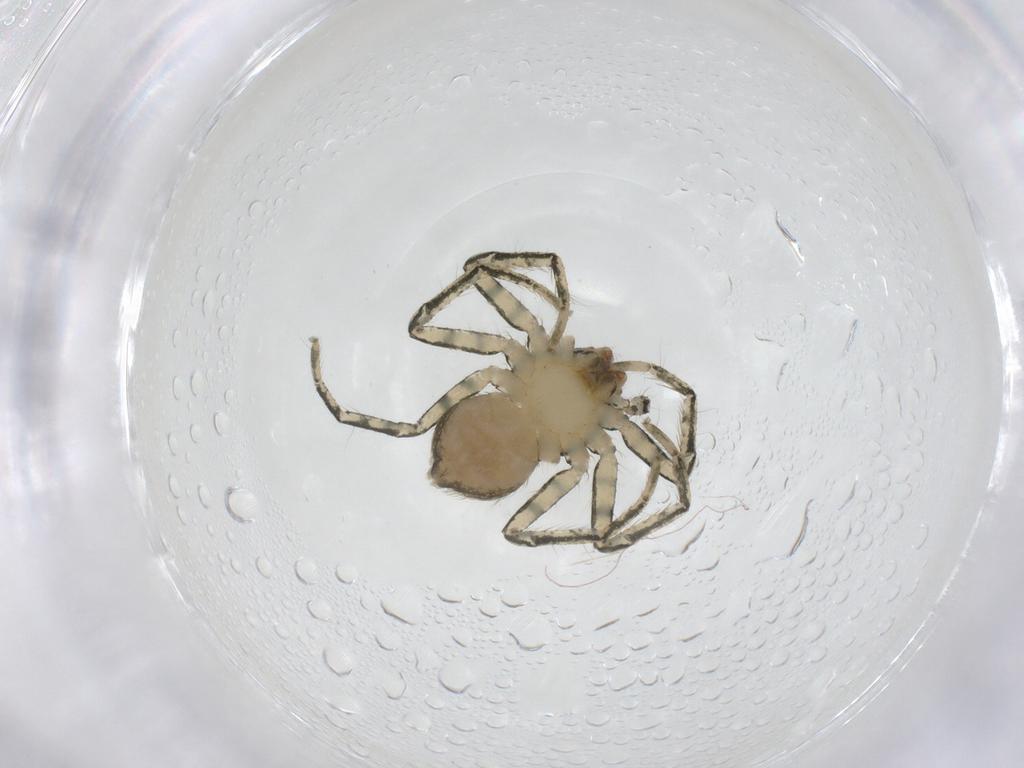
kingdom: Animalia
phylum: Arthropoda
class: Arachnida
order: Araneae
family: Selenopidae
